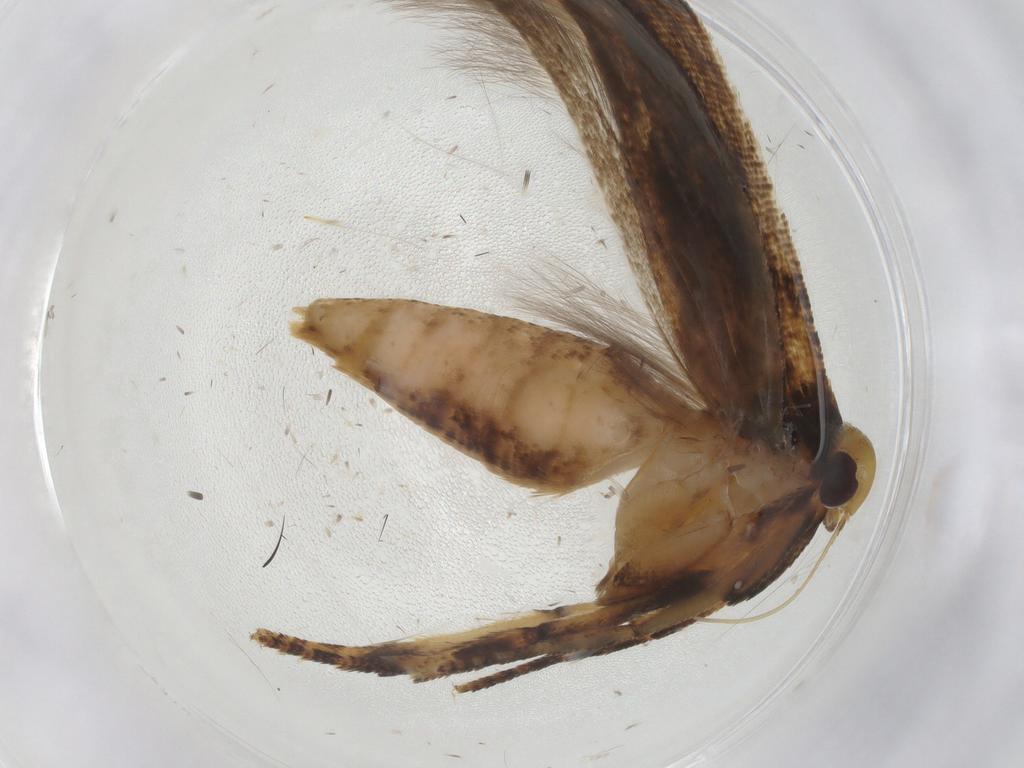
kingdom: Animalia
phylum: Arthropoda
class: Insecta
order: Lepidoptera
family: Cosmopterigidae
